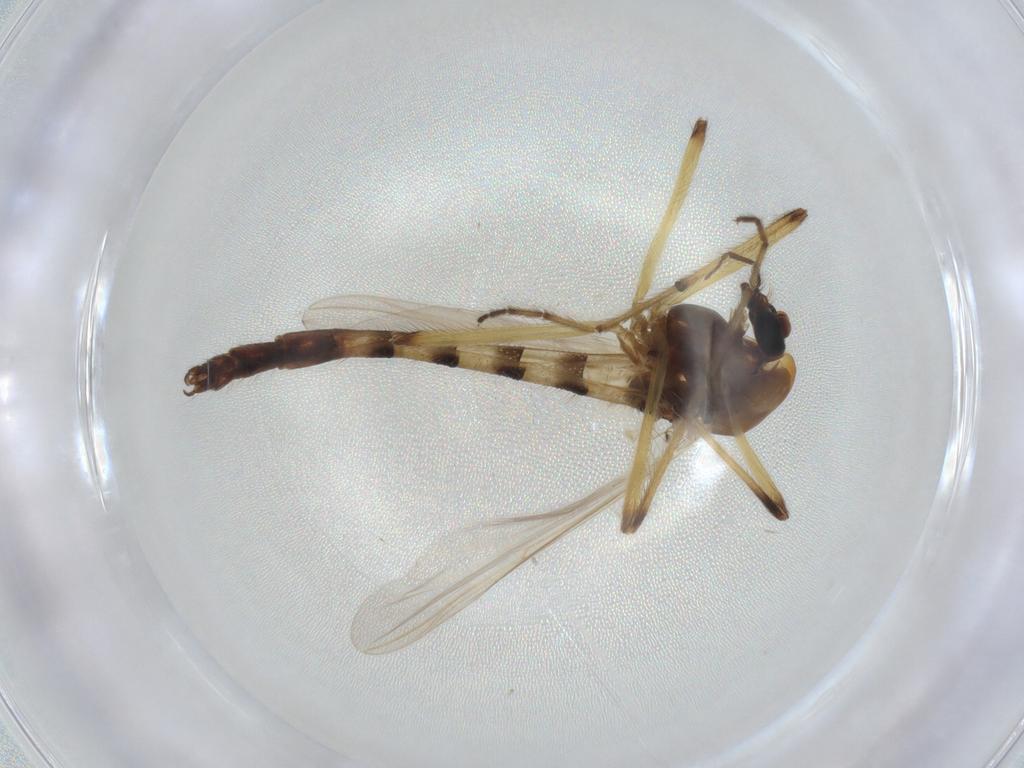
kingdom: Animalia
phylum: Arthropoda
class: Insecta
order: Diptera
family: Chironomidae
